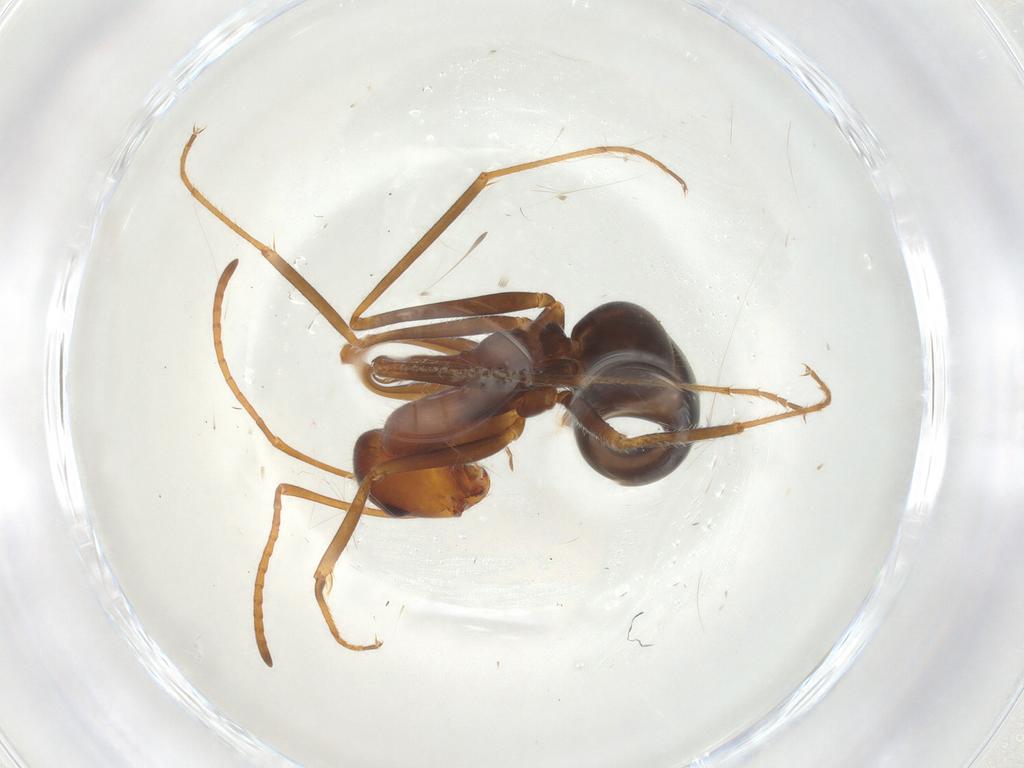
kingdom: Animalia
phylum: Arthropoda
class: Insecta
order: Hymenoptera
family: Formicidae
